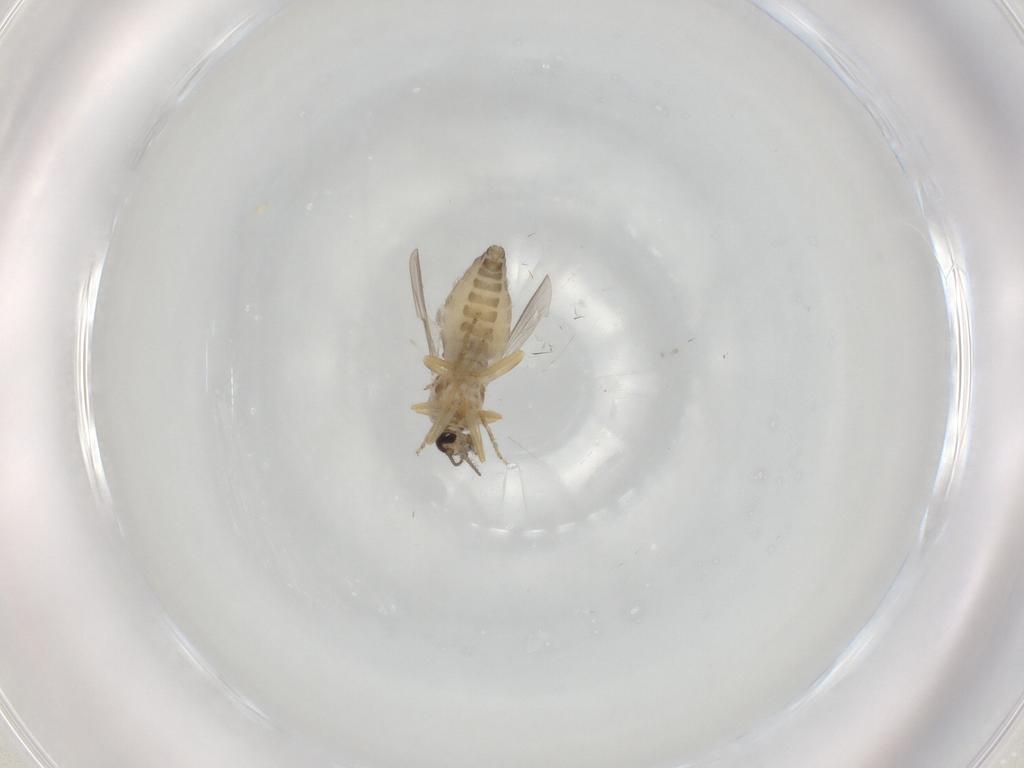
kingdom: Animalia
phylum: Arthropoda
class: Insecta
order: Diptera
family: Ceratopogonidae
